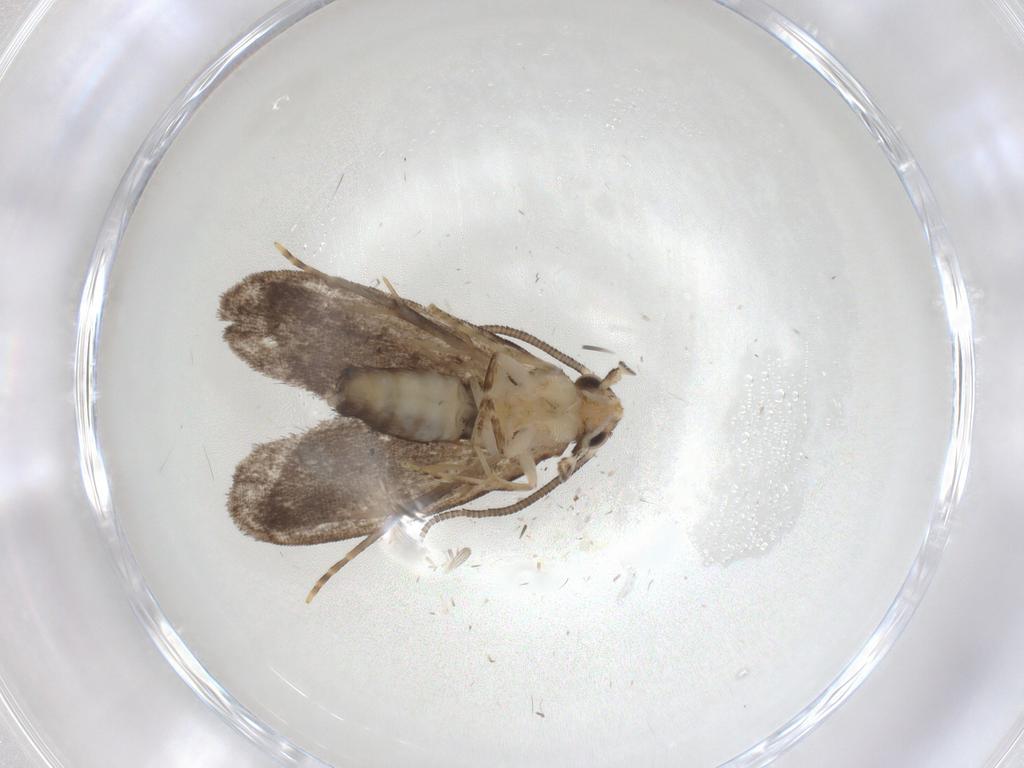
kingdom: Animalia
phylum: Arthropoda
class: Insecta
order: Lepidoptera
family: Dryadaulidae
